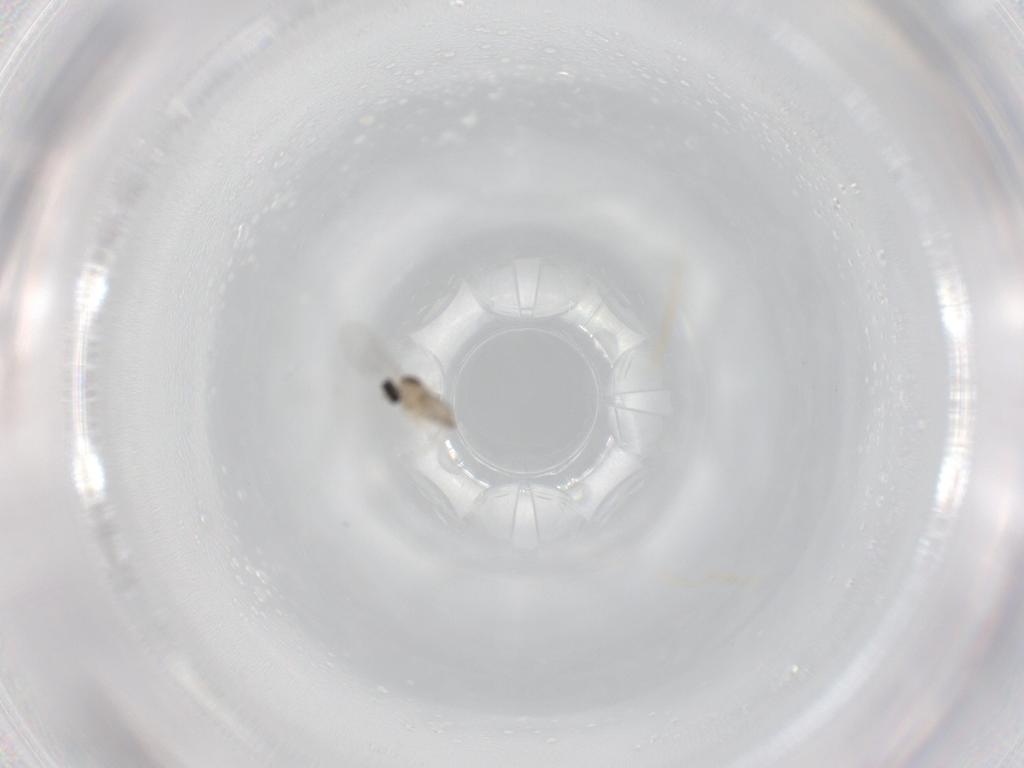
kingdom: Animalia
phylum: Arthropoda
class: Insecta
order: Diptera
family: Cecidomyiidae
